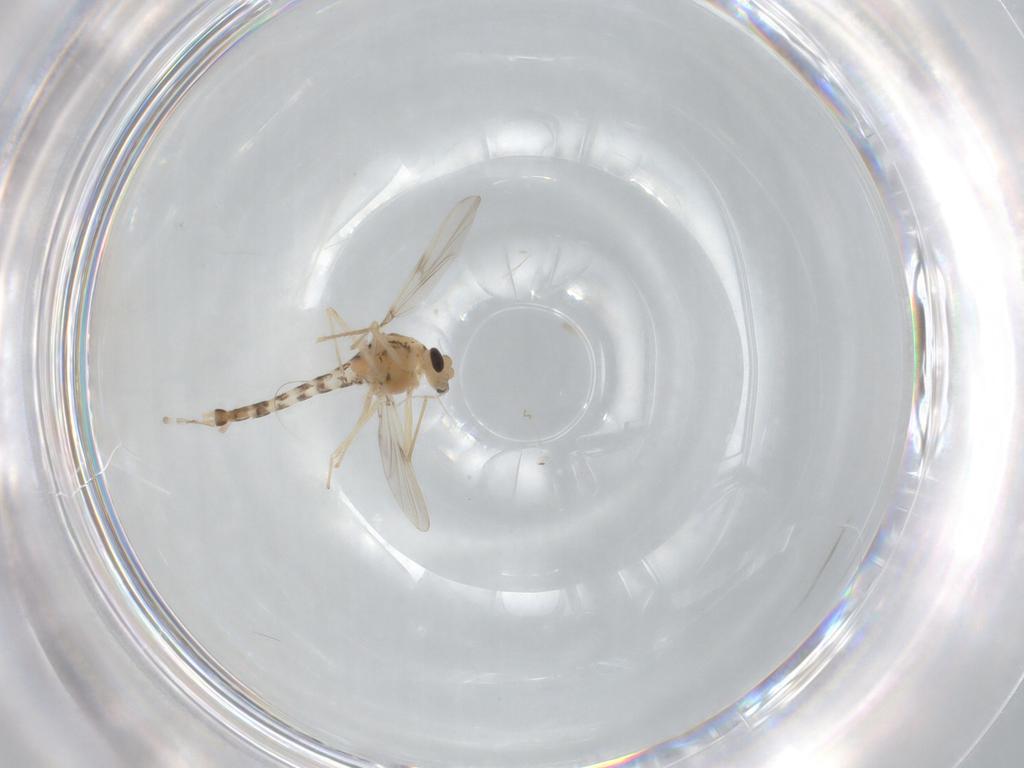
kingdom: Animalia
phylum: Arthropoda
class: Insecta
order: Diptera
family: Chironomidae
